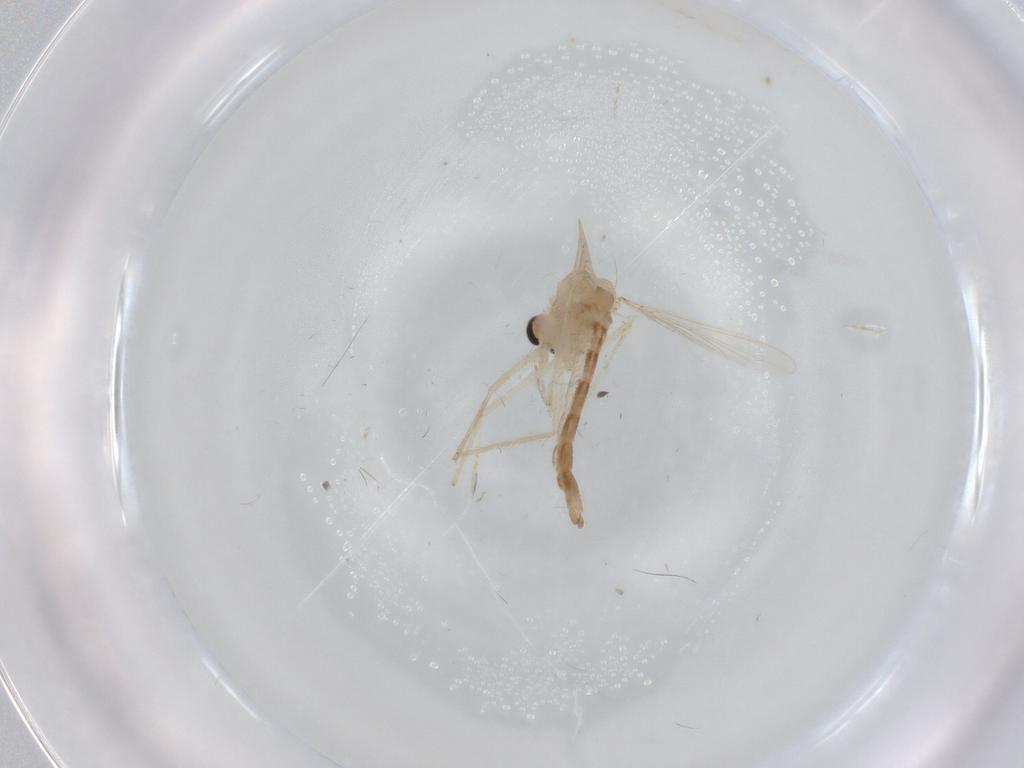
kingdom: Animalia
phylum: Arthropoda
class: Insecta
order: Diptera
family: Chironomidae
